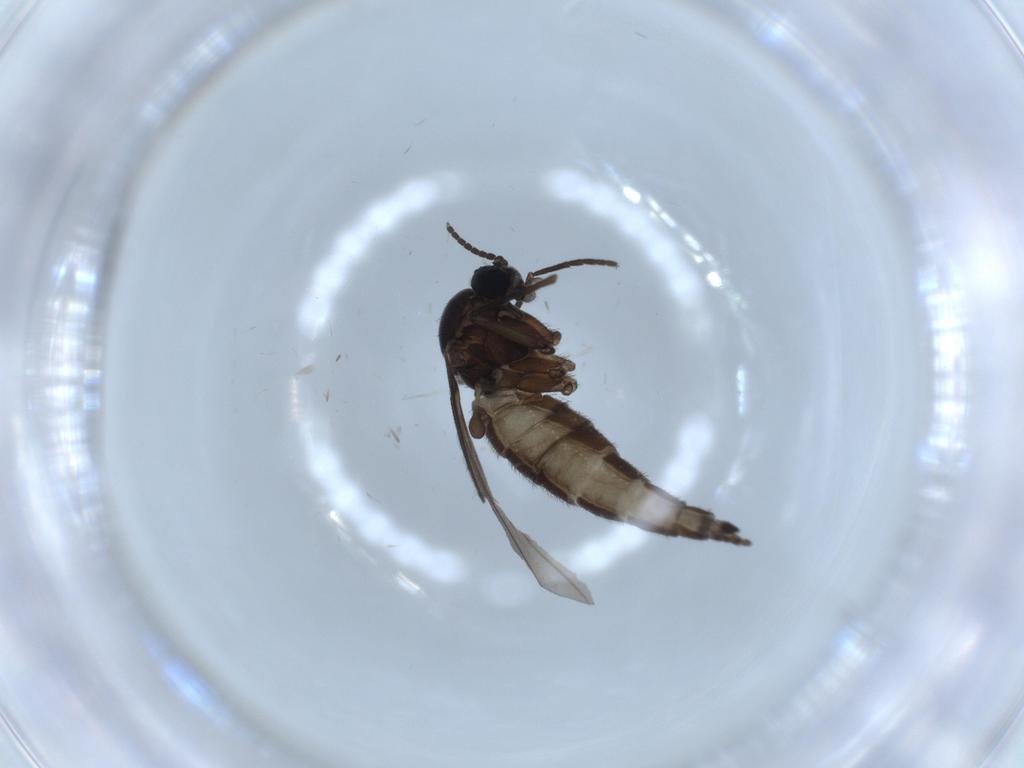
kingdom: Animalia
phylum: Arthropoda
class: Insecta
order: Diptera
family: Sciaridae
